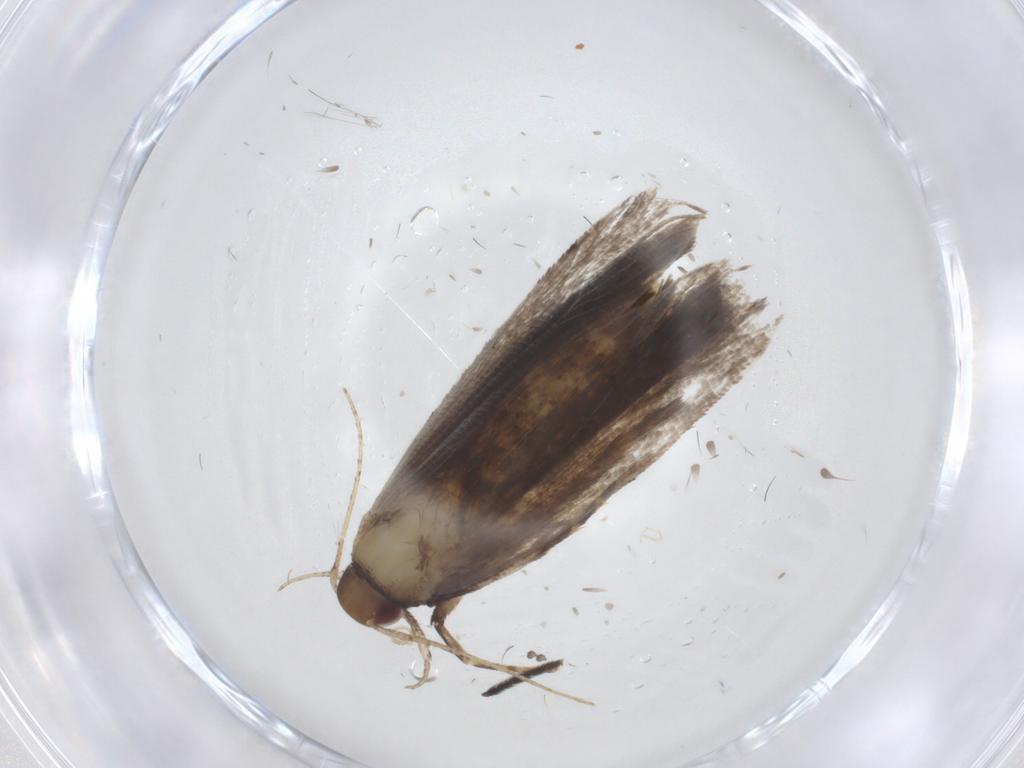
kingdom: Animalia
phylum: Arthropoda
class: Insecta
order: Lepidoptera
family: Gelechiidae
